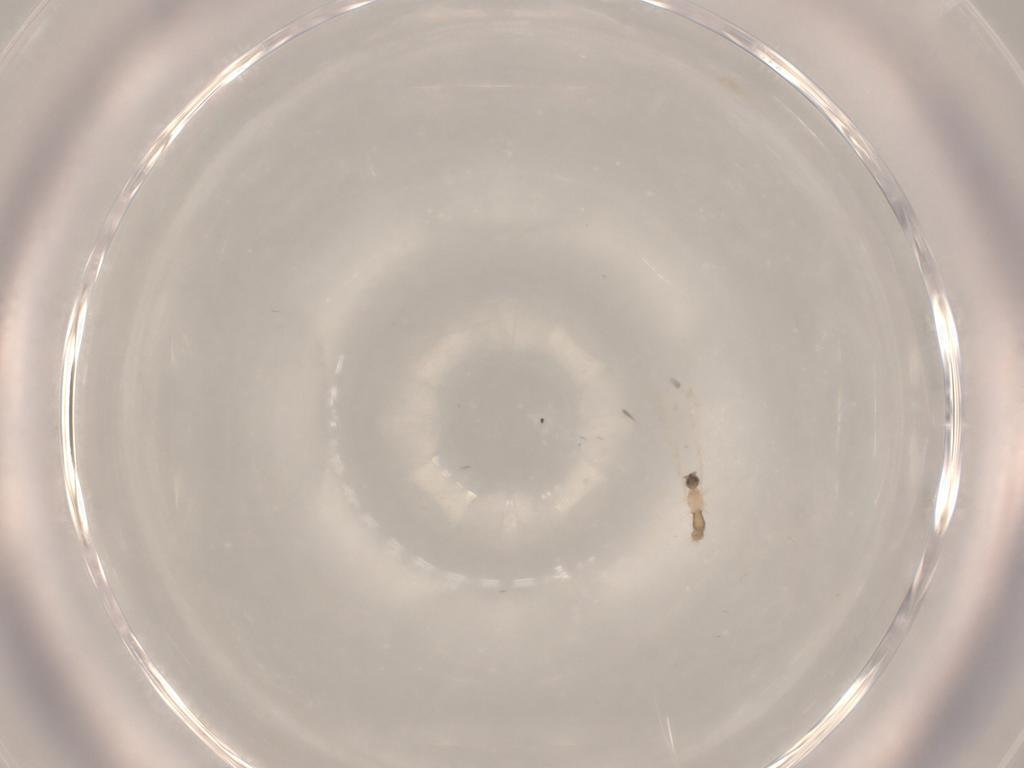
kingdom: Animalia
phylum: Arthropoda
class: Insecta
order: Diptera
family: Cecidomyiidae
